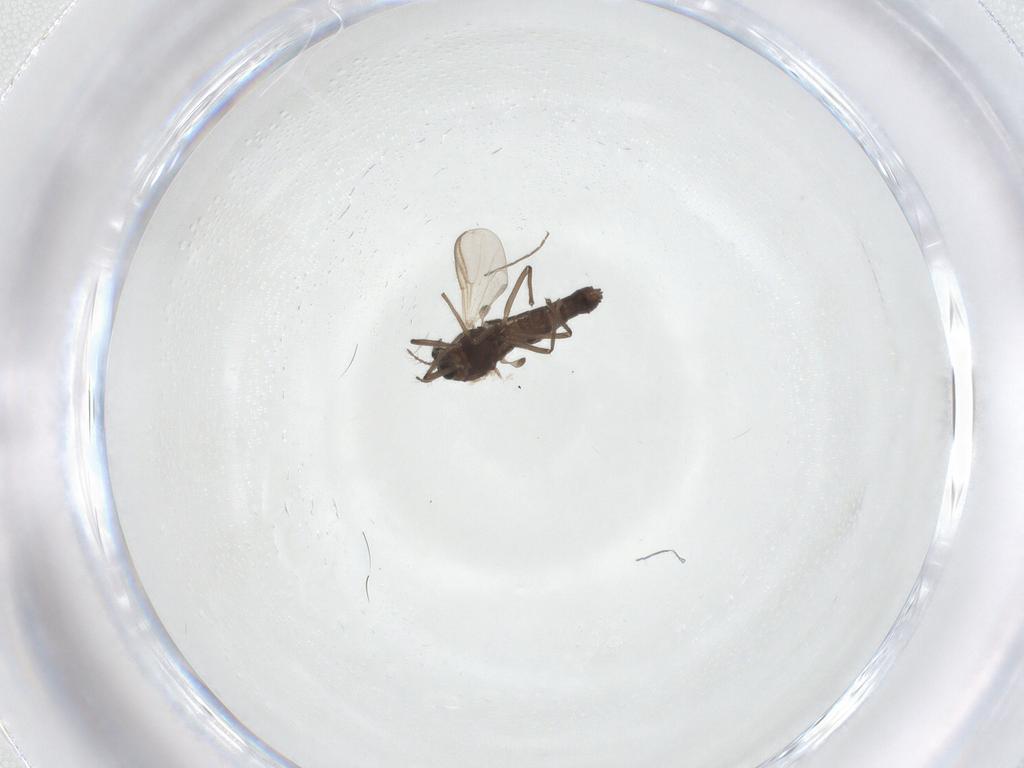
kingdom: Animalia
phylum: Arthropoda
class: Insecta
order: Diptera
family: Chironomidae
